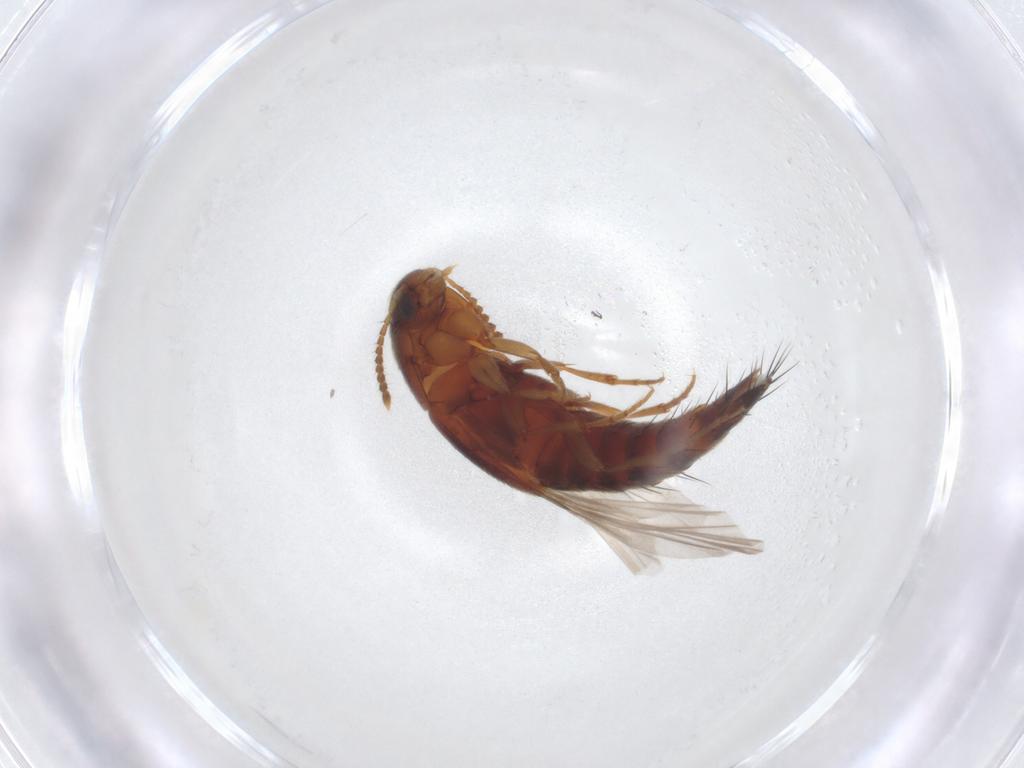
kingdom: Animalia
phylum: Arthropoda
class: Insecta
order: Coleoptera
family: Staphylinidae
